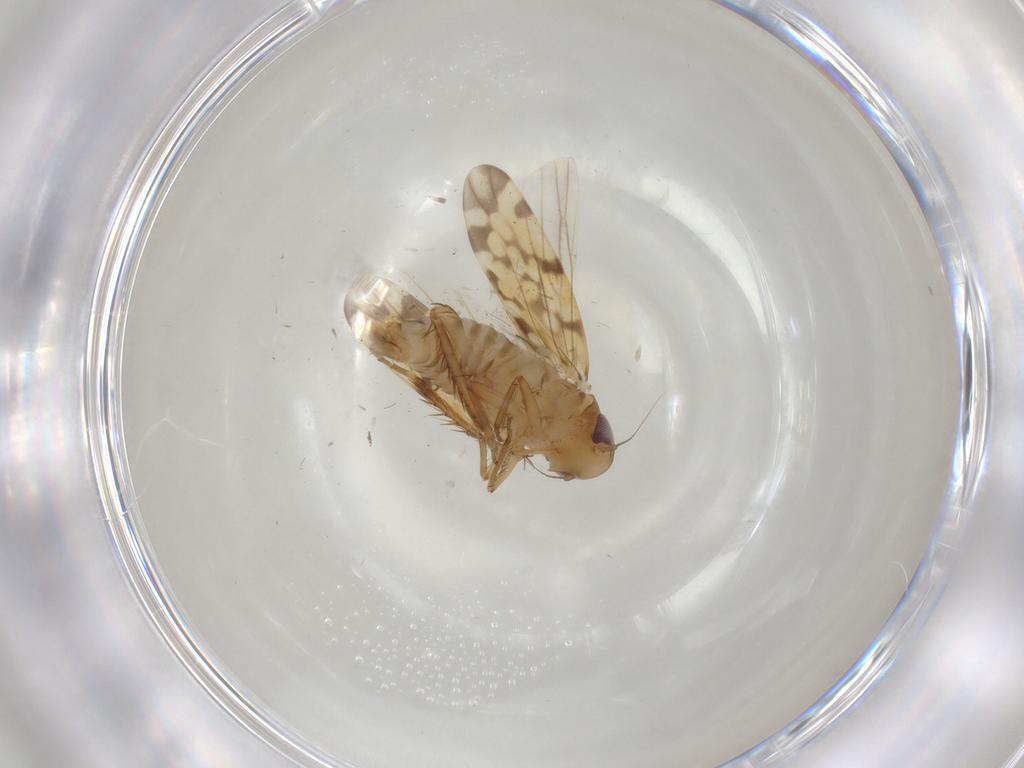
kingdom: Animalia
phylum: Arthropoda
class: Insecta
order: Hemiptera
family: Cicadellidae
